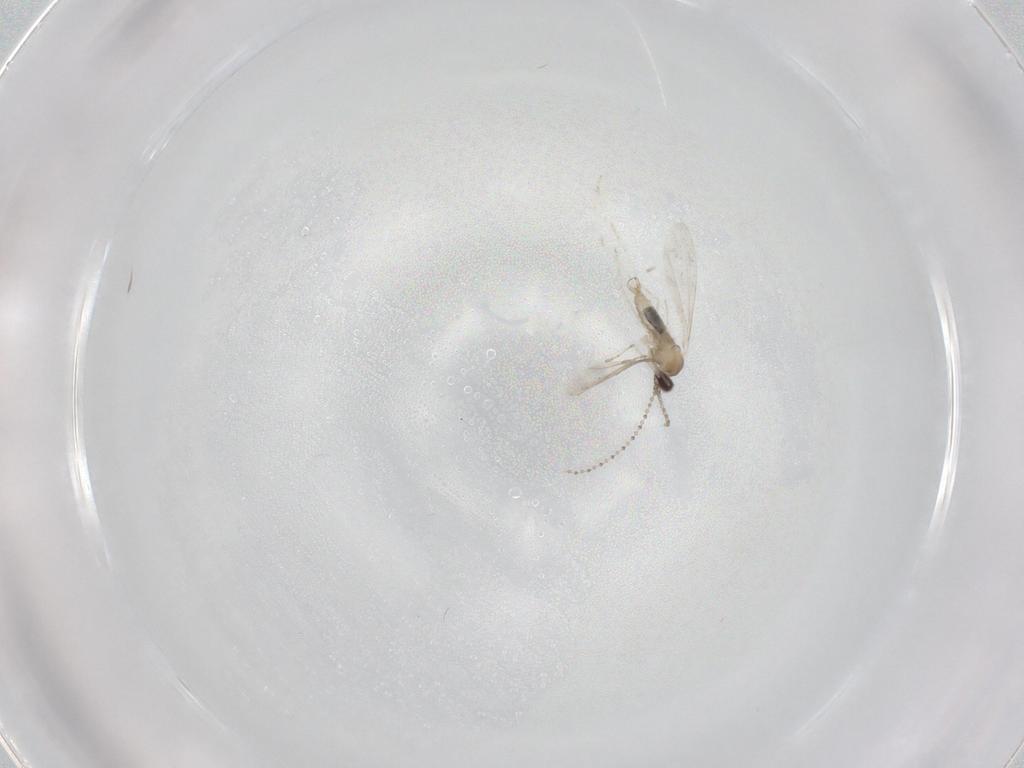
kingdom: Animalia
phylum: Arthropoda
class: Insecta
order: Diptera
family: Cecidomyiidae
